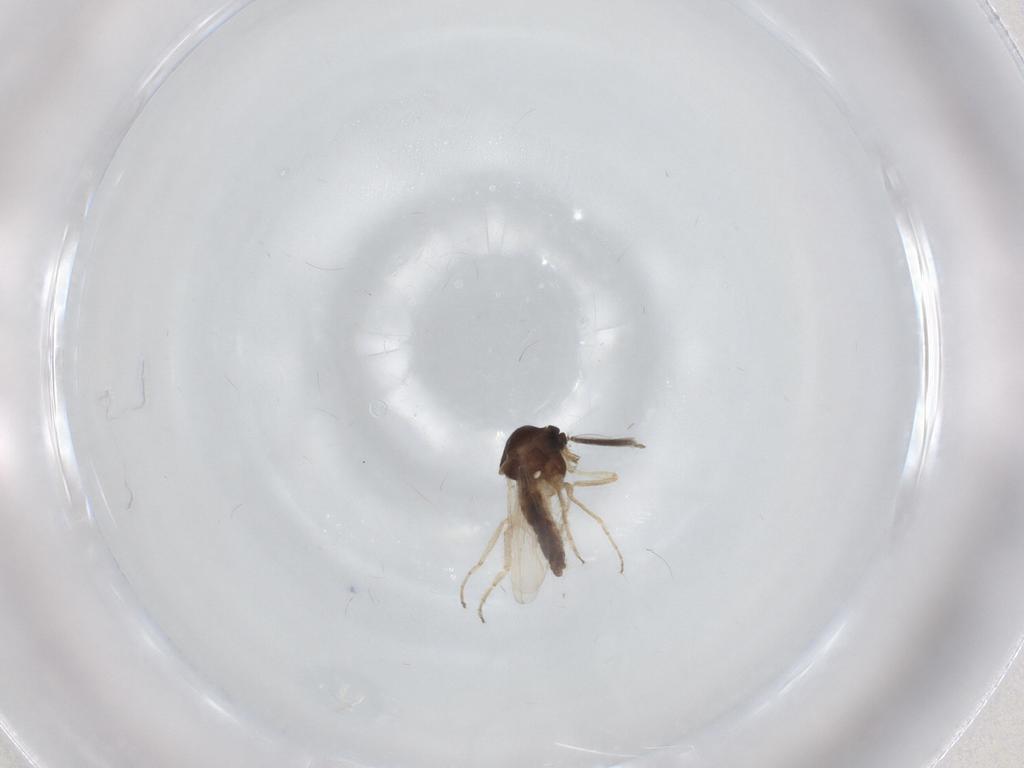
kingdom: Animalia
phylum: Arthropoda
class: Insecta
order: Diptera
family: Ceratopogonidae
